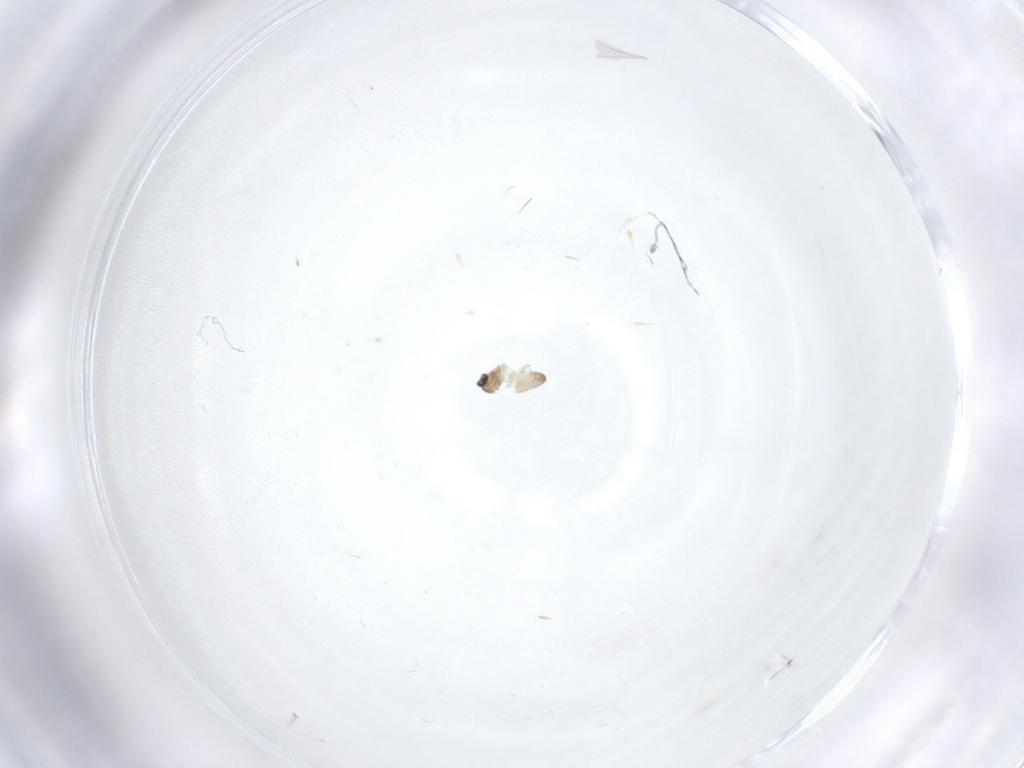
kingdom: Animalia
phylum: Arthropoda
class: Insecta
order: Diptera
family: Cecidomyiidae
